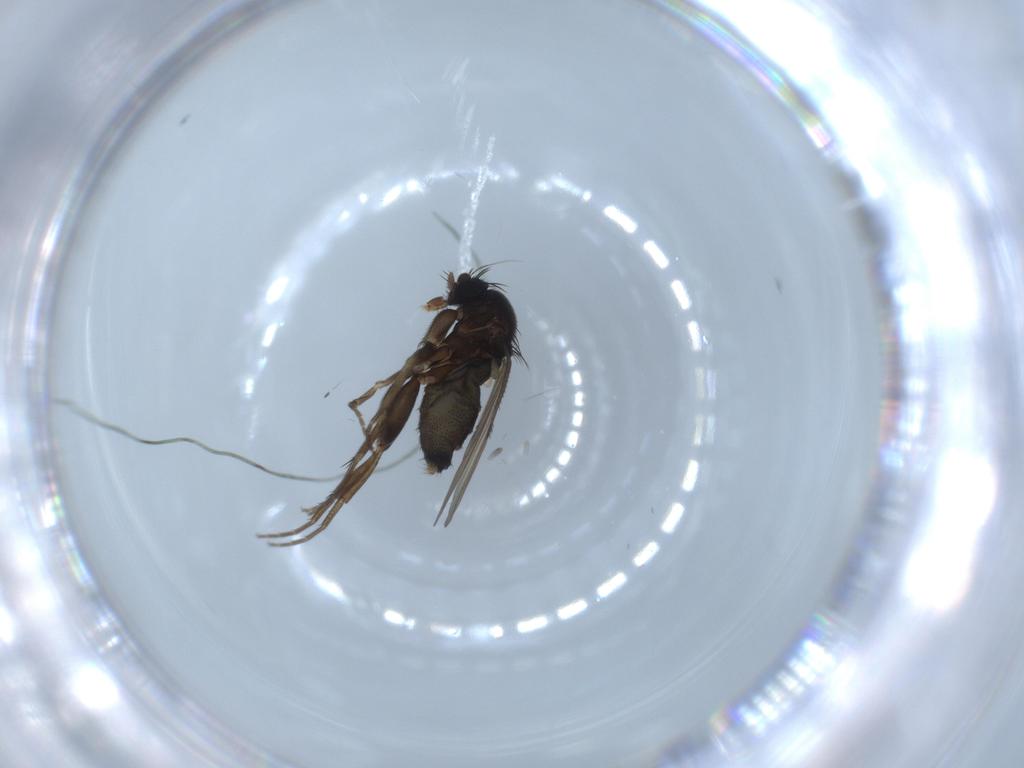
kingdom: Animalia
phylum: Arthropoda
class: Insecta
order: Diptera
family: Phoridae
